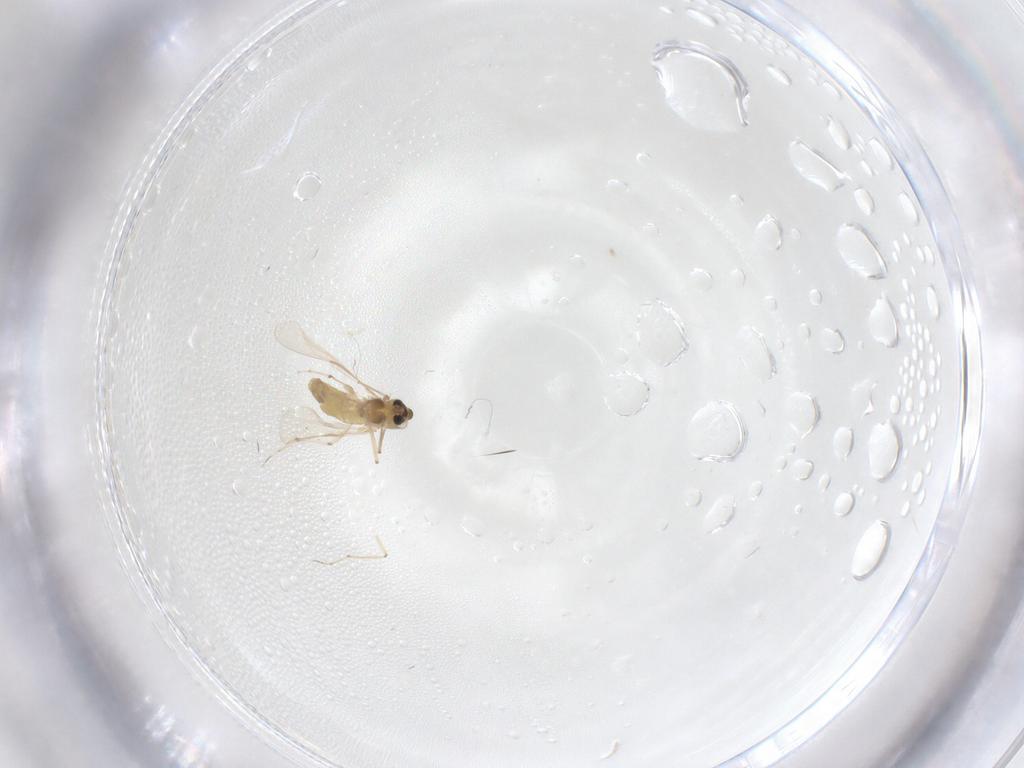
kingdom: Animalia
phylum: Arthropoda
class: Insecta
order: Diptera
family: Chironomidae
